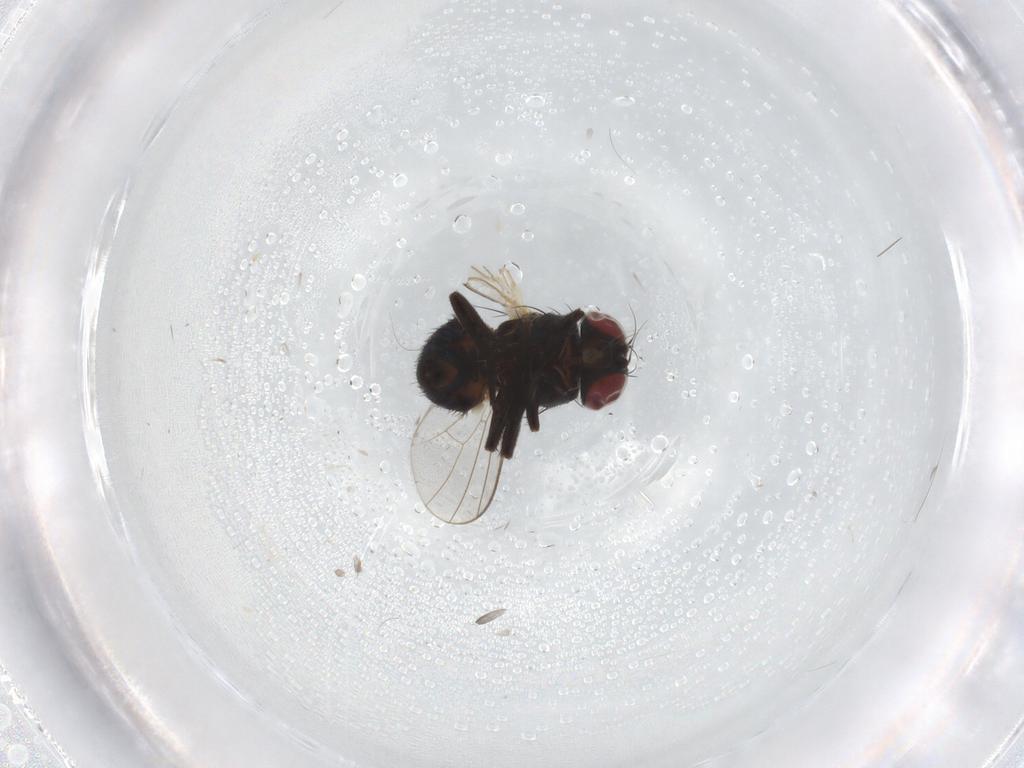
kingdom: Animalia
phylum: Arthropoda
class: Insecta
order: Diptera
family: Agromyzidae
